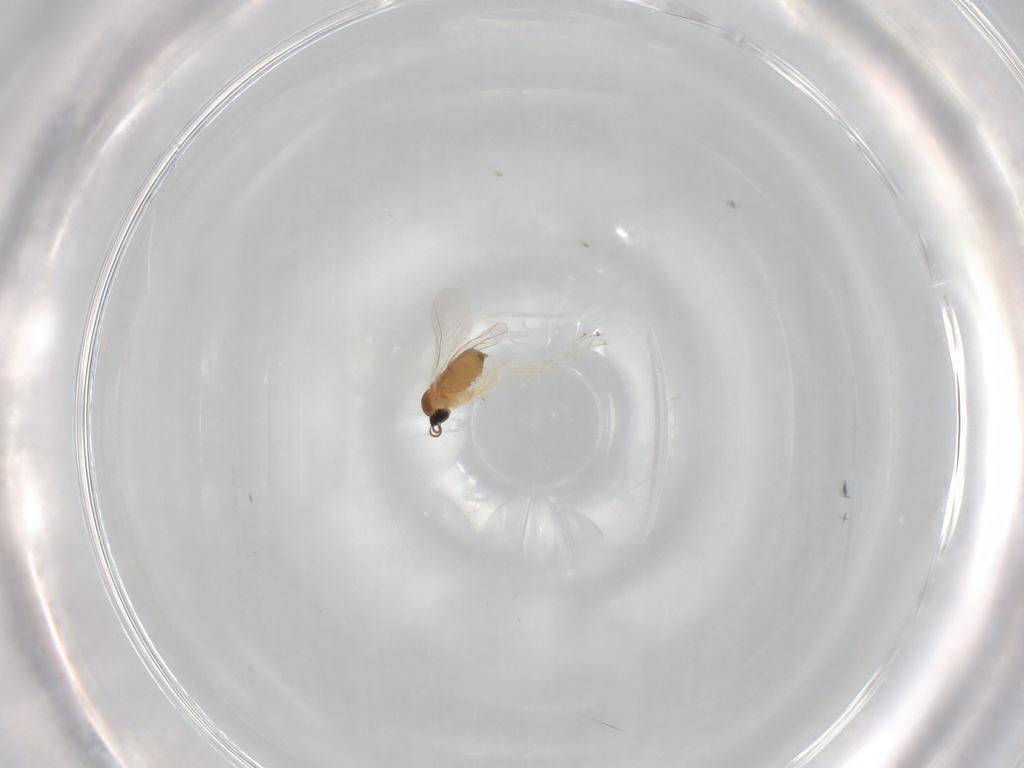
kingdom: Animalia
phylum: Arthropoda
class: Insecta
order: Diptera
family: Cecidomyiidae
